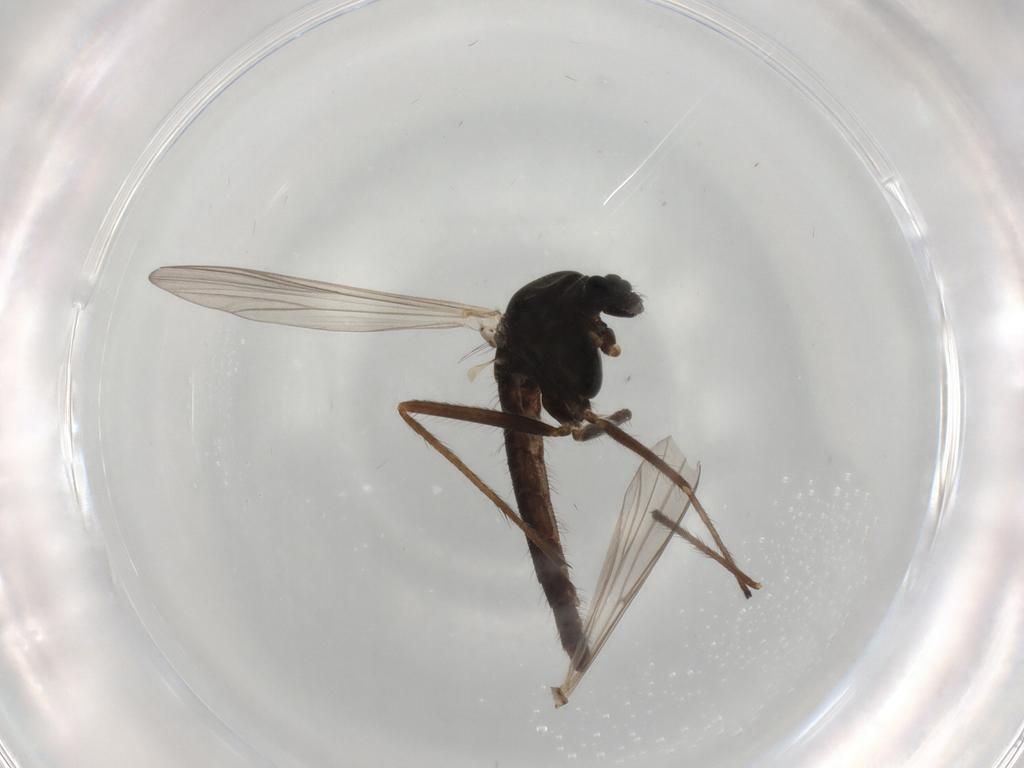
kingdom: Animalia
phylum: Arthropoda
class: Insecta
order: Diptera
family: Chironomidae
